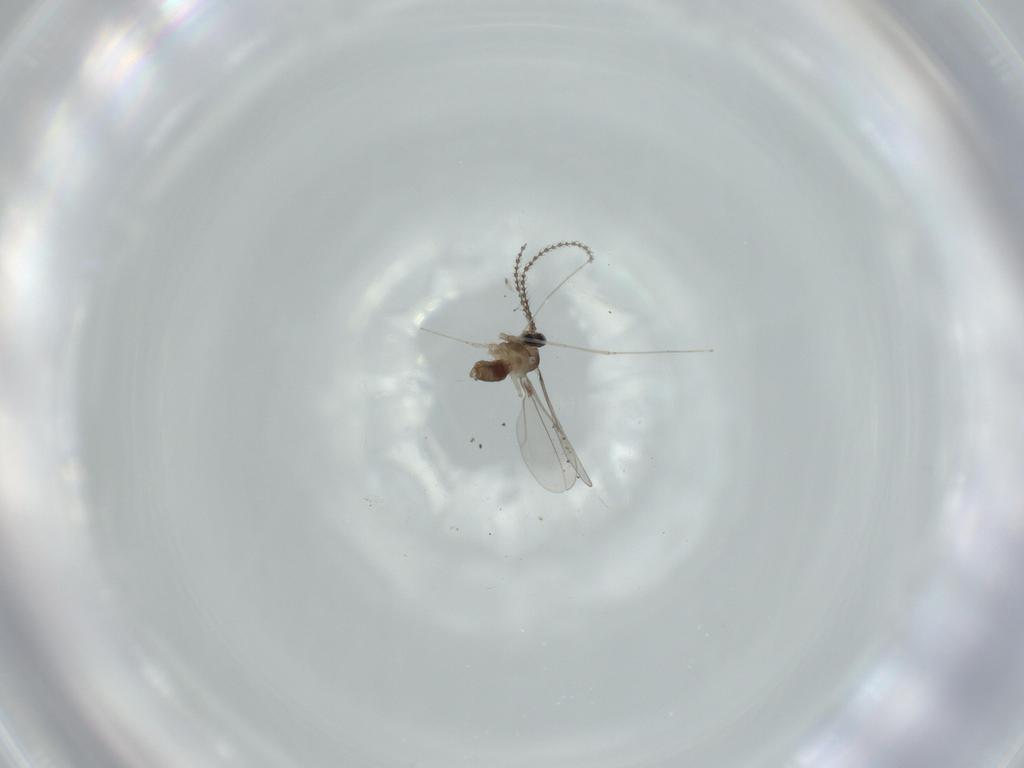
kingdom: Animalia
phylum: Arthropoda
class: Insecta
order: Diptera
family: Cecidomyiidae
